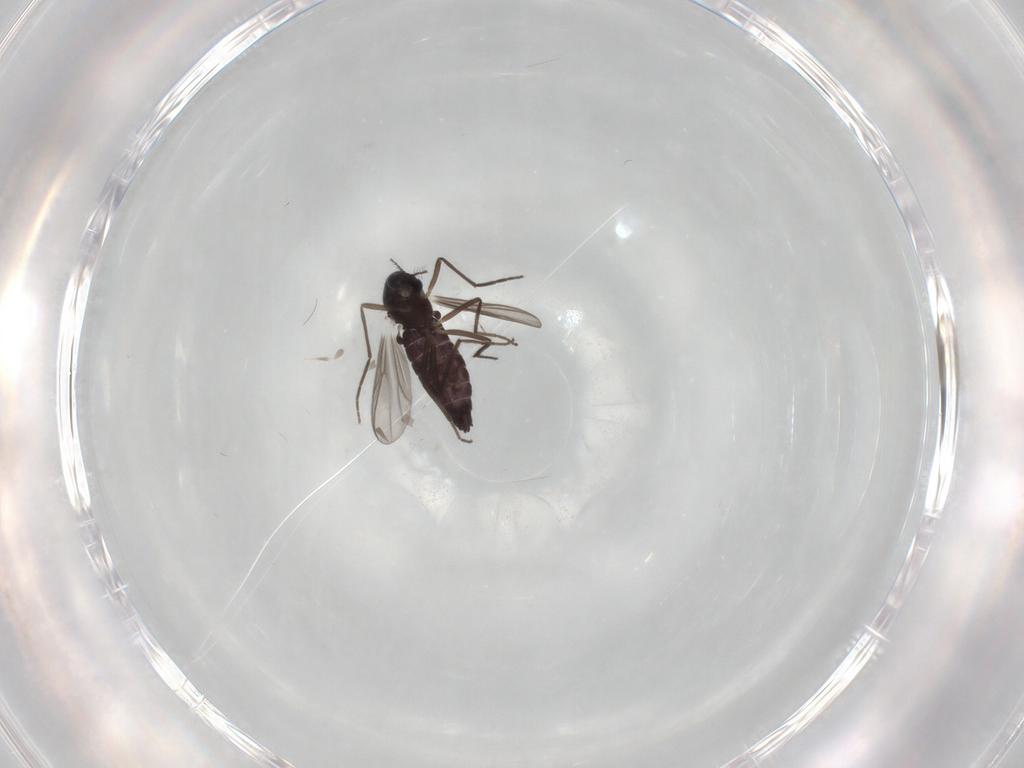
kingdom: Animalia
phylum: Arthropoda
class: Insecta
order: Diptera
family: Chironomidae
